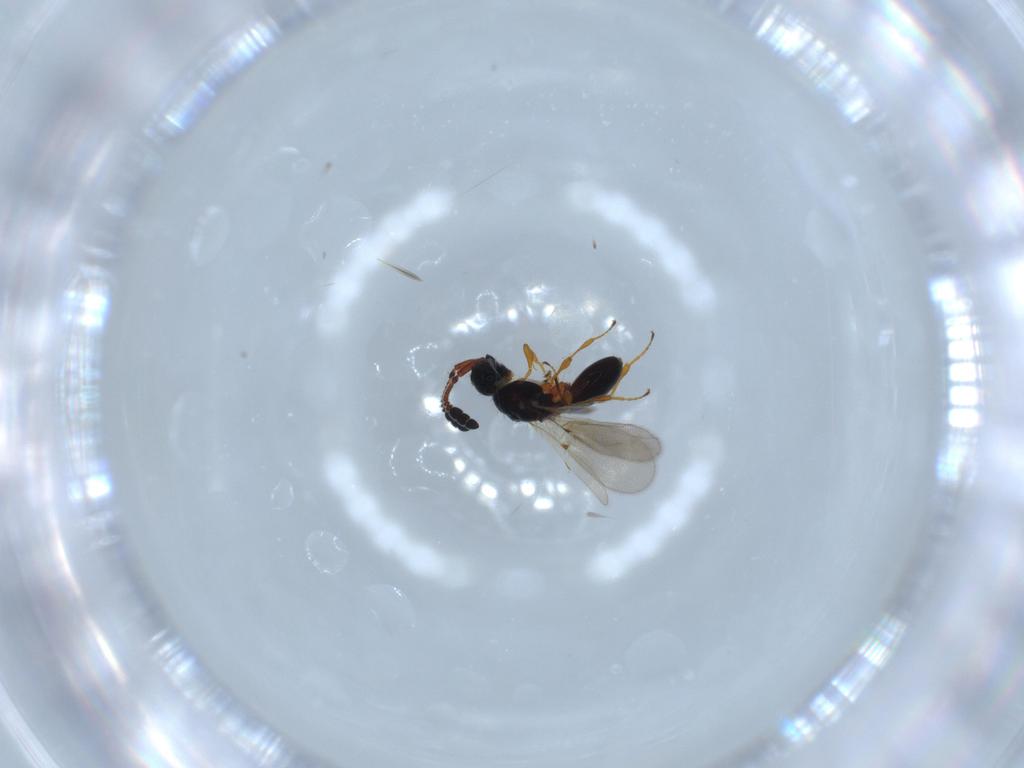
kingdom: Animalia
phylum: Arthropoda
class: Insecta
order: Hymenoptera
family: Diapriidae
